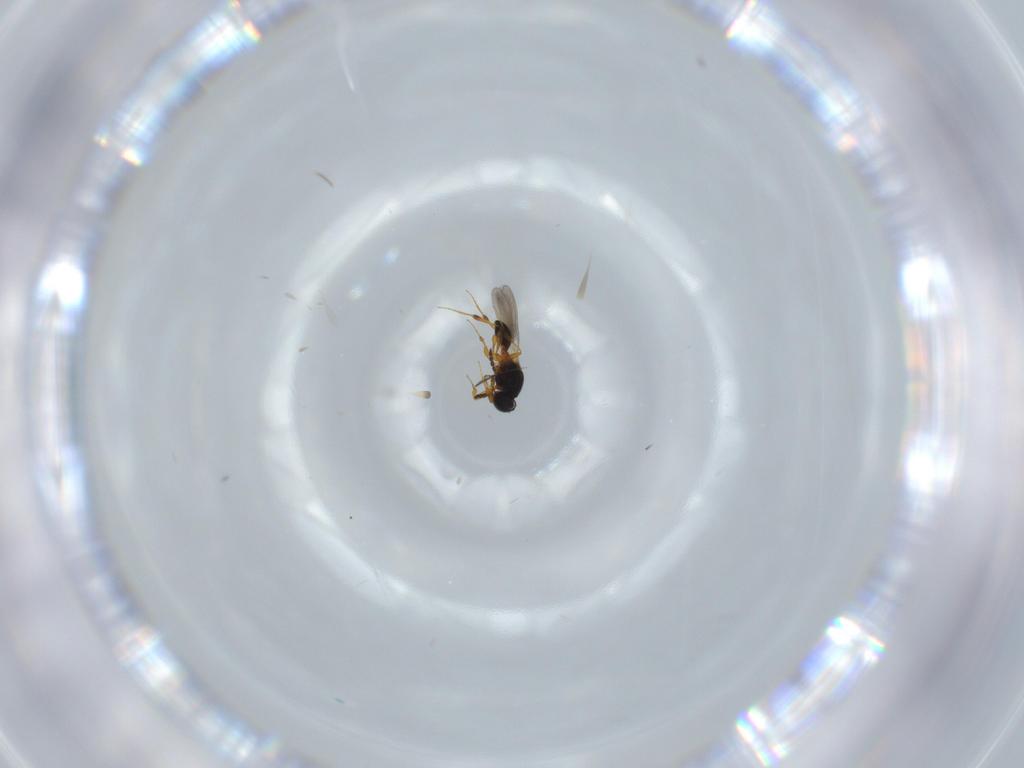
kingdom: Animalia
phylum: Arthropoda
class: Insecta
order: Hymenoptera
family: Platygastridae
